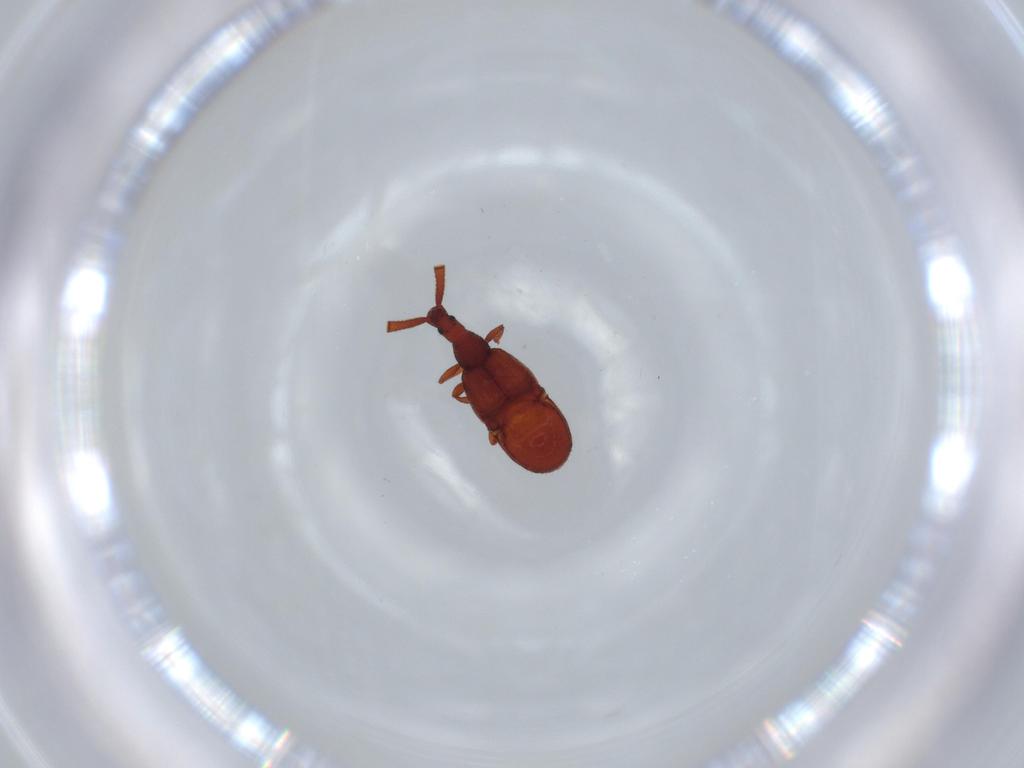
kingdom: Animalia
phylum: Arthropoda
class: Insecta
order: Coleoptera
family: Staphylinidae
